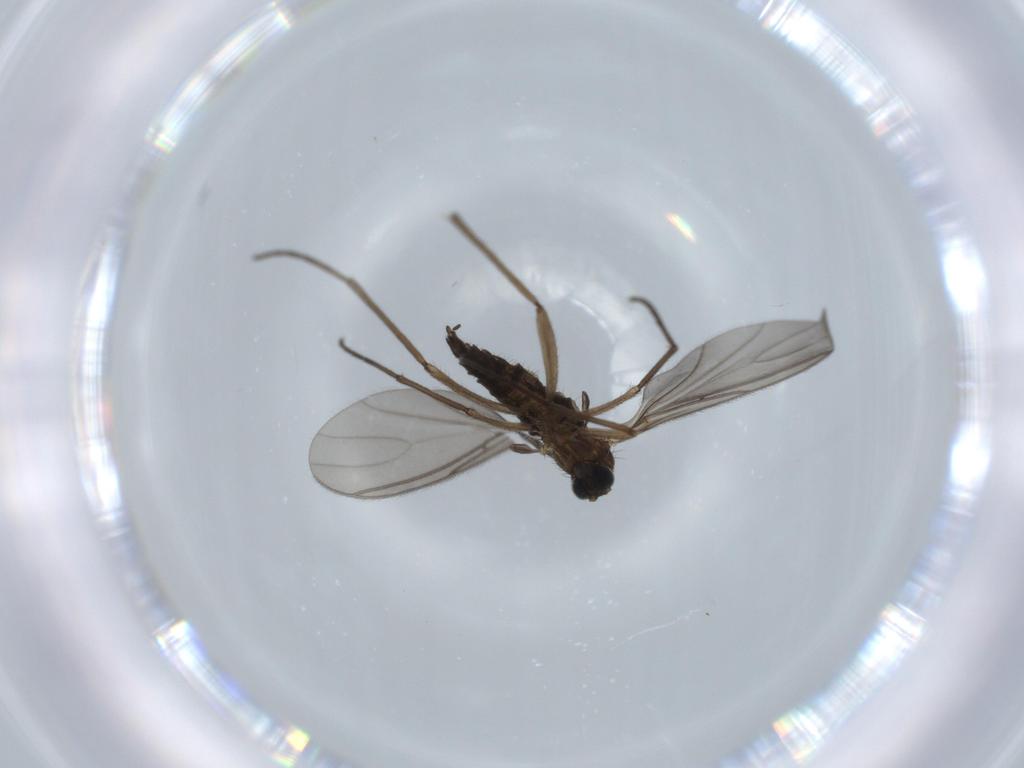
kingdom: Animalia
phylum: Arthropoda
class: Insecta
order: Diptera
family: Sciaridae
